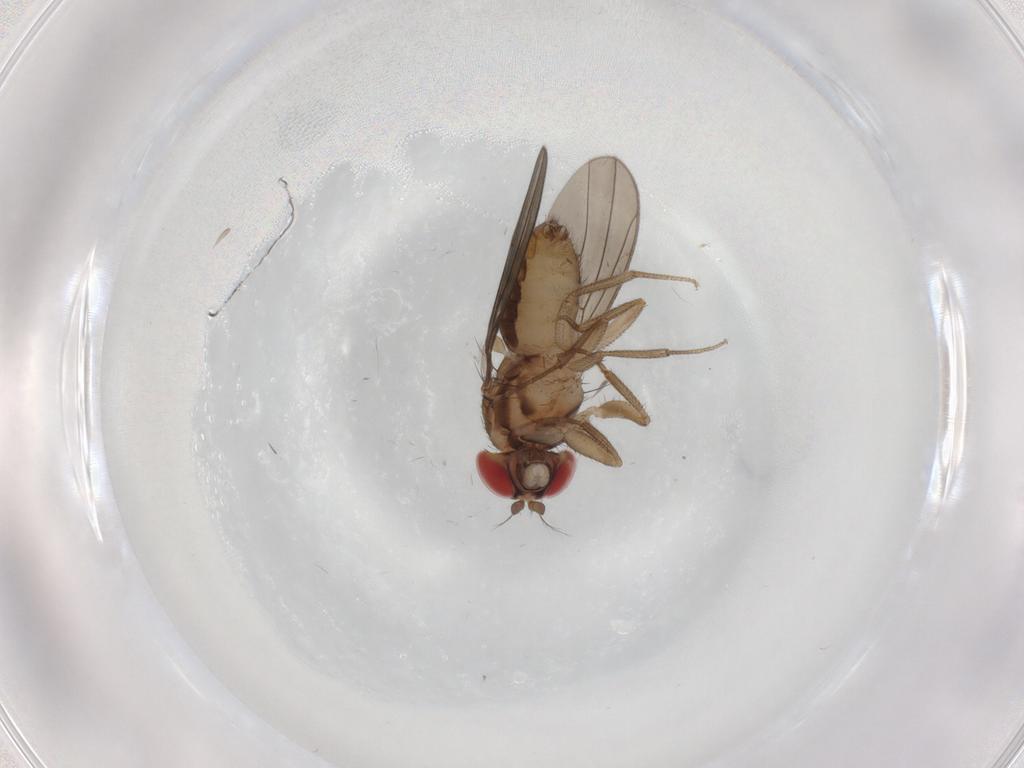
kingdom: Animalia
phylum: Arthropoda
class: Insecta
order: Diptera
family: Drosophilidae
